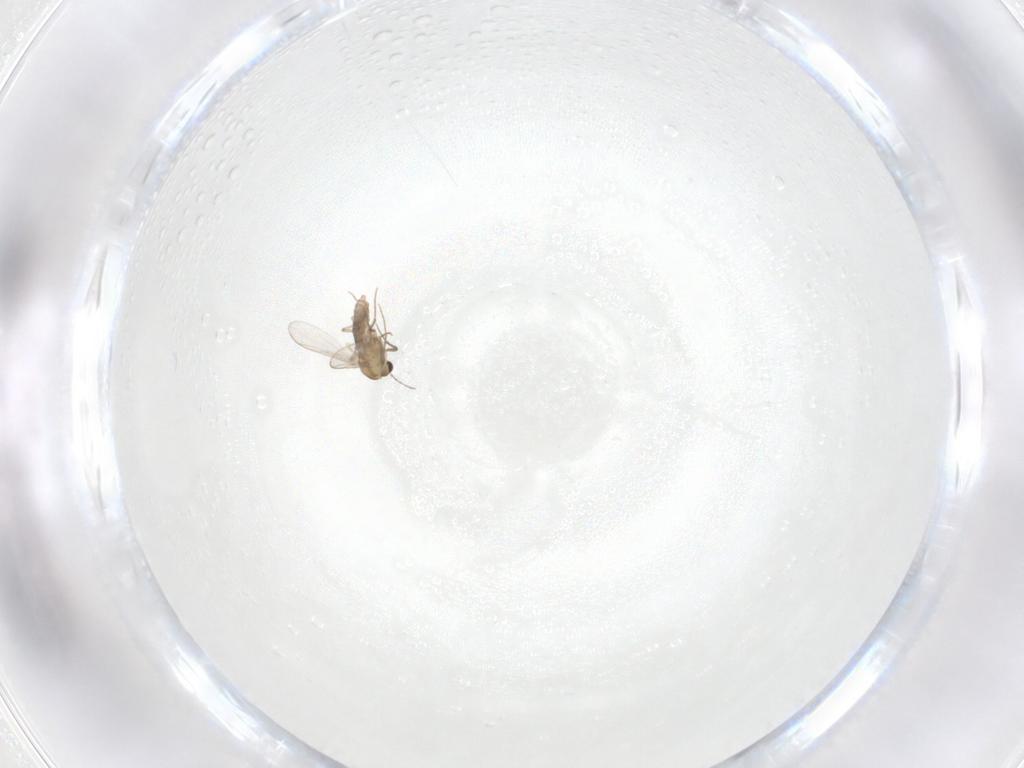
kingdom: Animalia
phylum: Arthropoda
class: Insecta
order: Diptera
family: Chironomidae
